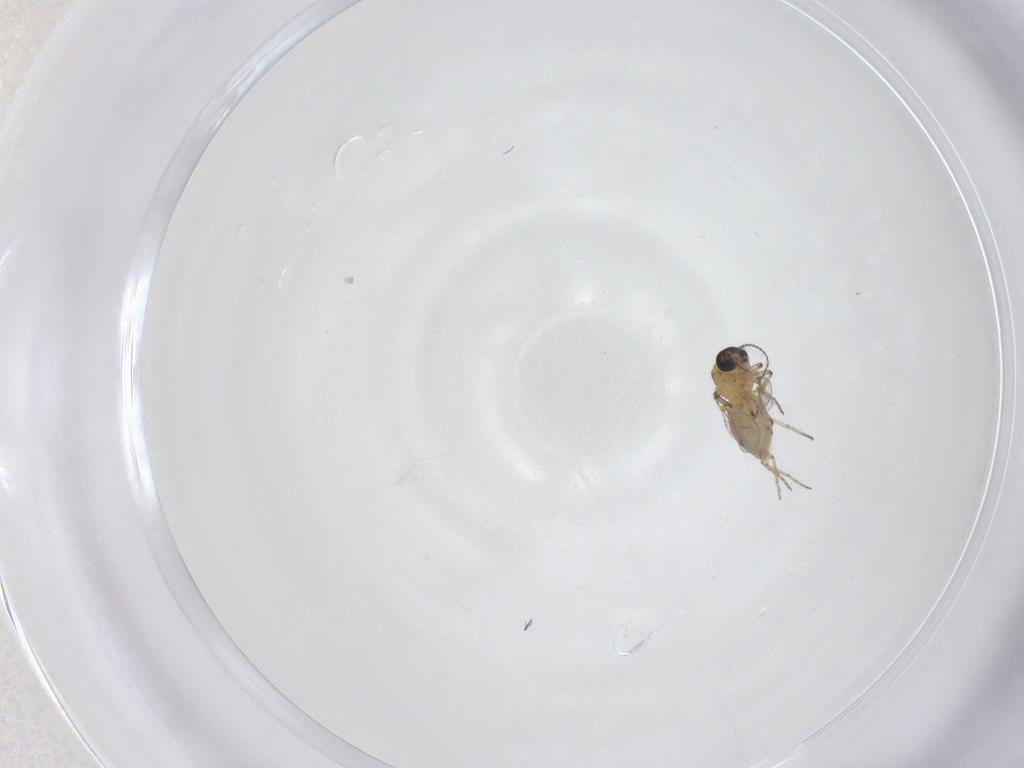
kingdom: Animalia
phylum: Arthropoda
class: Insecta
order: Diptera
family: Ceratopogonidae
